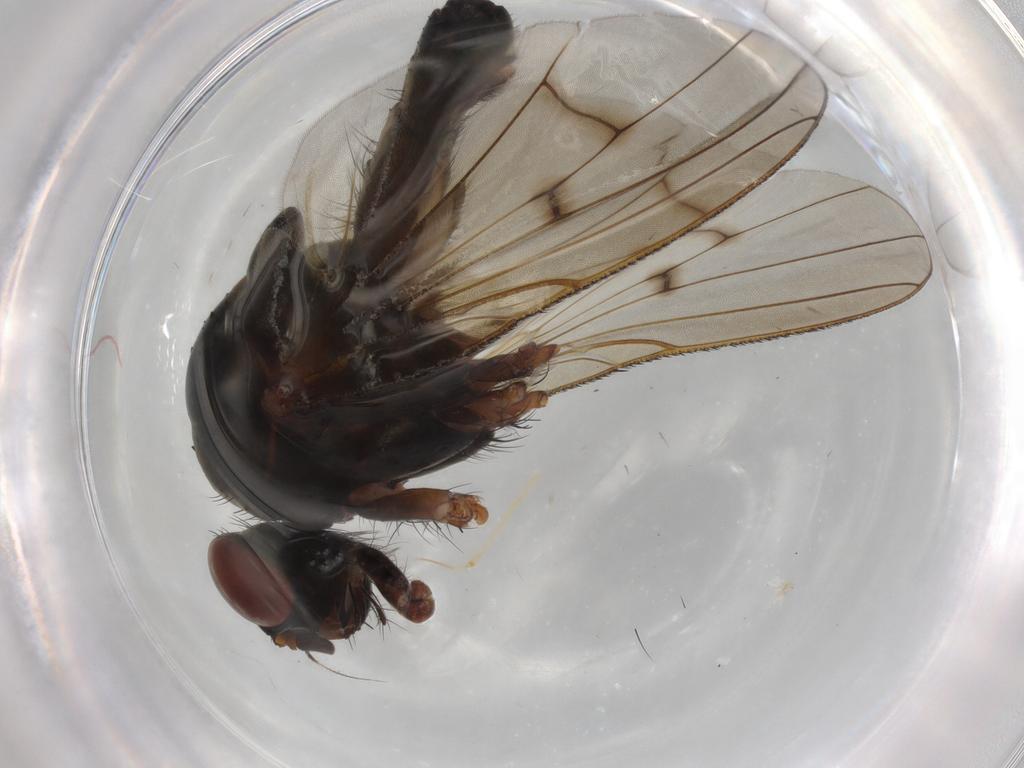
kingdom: Animalia
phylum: Arthropoda
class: Insecta
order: Diptera
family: Anthomyiidae
